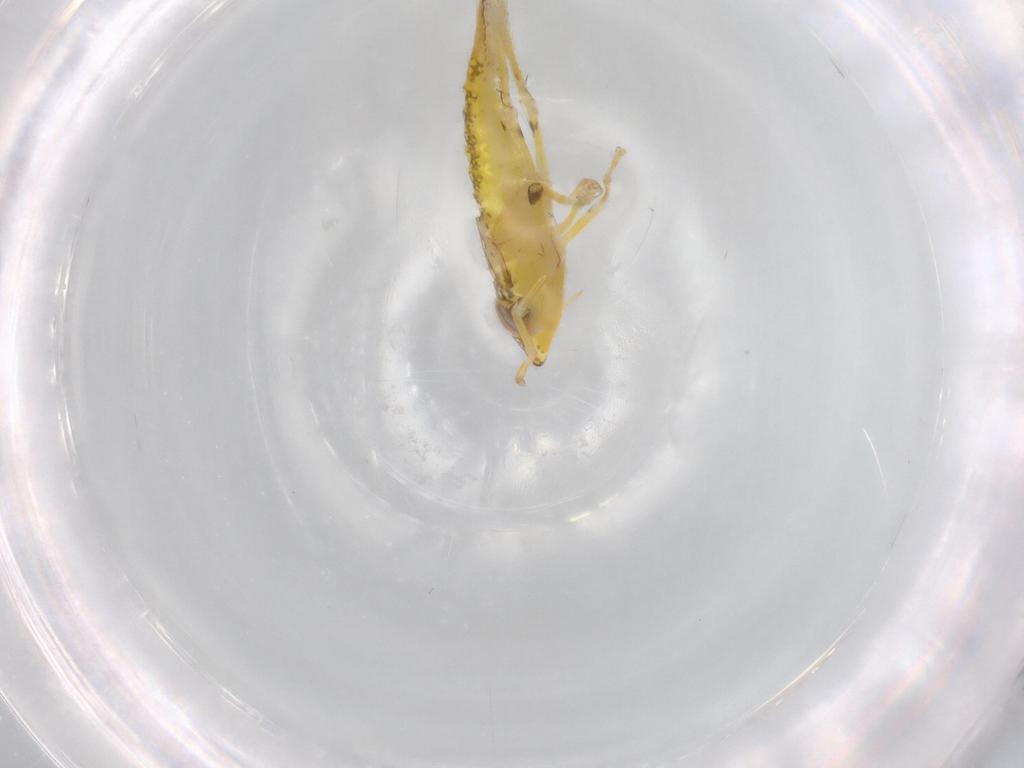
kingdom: Animalia
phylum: Arthropoda
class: Insecta
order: Hemiptera
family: Cicadellidae
